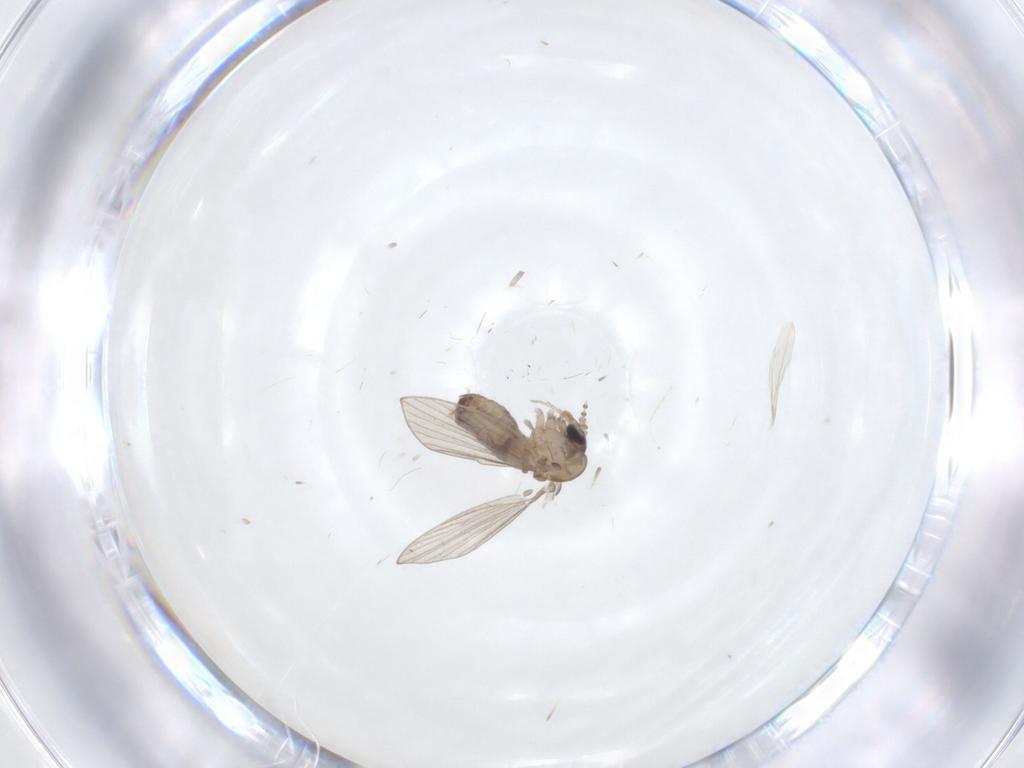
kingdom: Animalia
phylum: Arthropoda
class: Insecta
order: Diptera
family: Psychodidae
